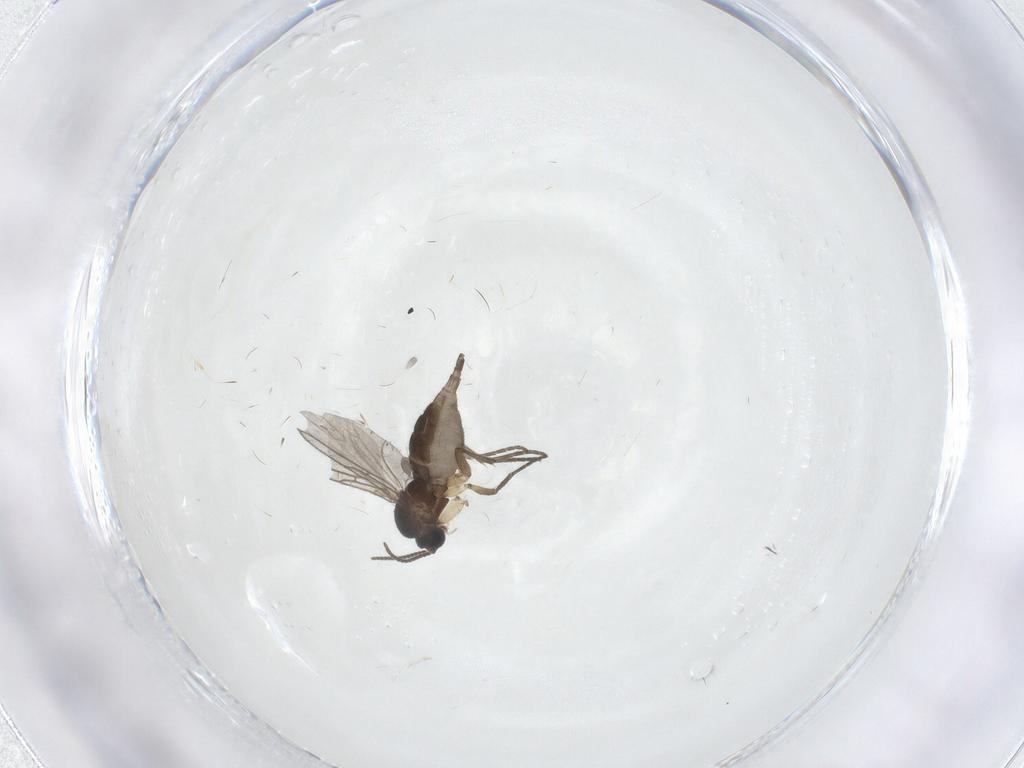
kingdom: Animalia
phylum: Arthropoda
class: Insecta
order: Diptera
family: Sciaridae
